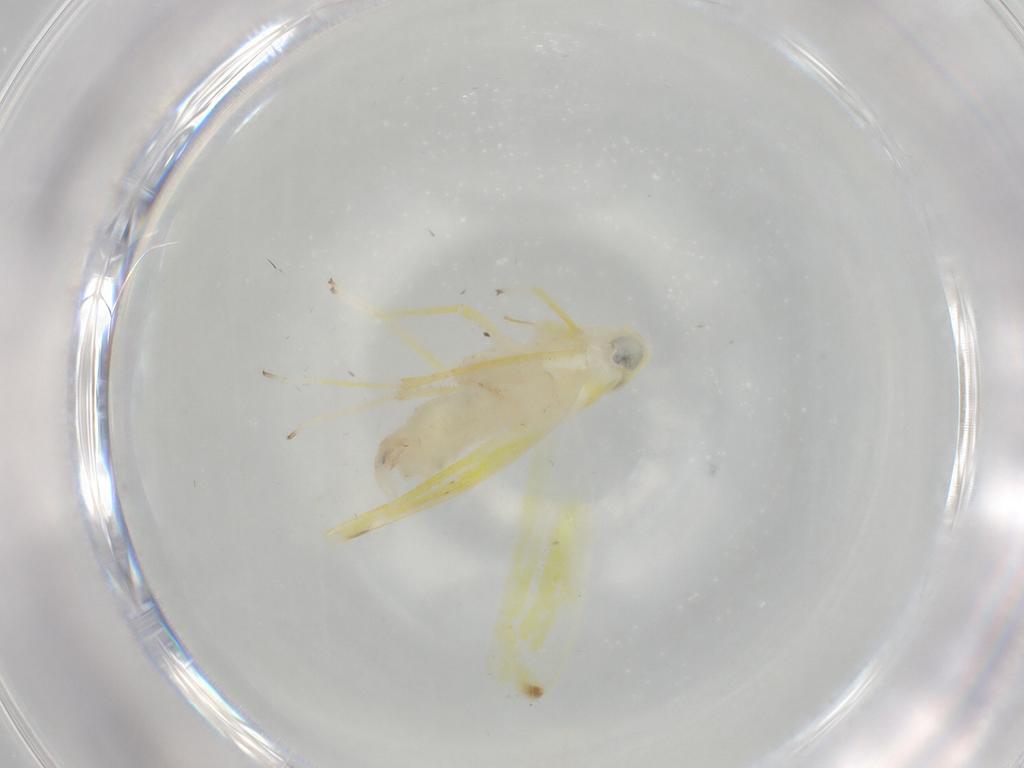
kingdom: Animalia
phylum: Arthropoda
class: Insecta
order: Hemiptera
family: Cicadellidae
